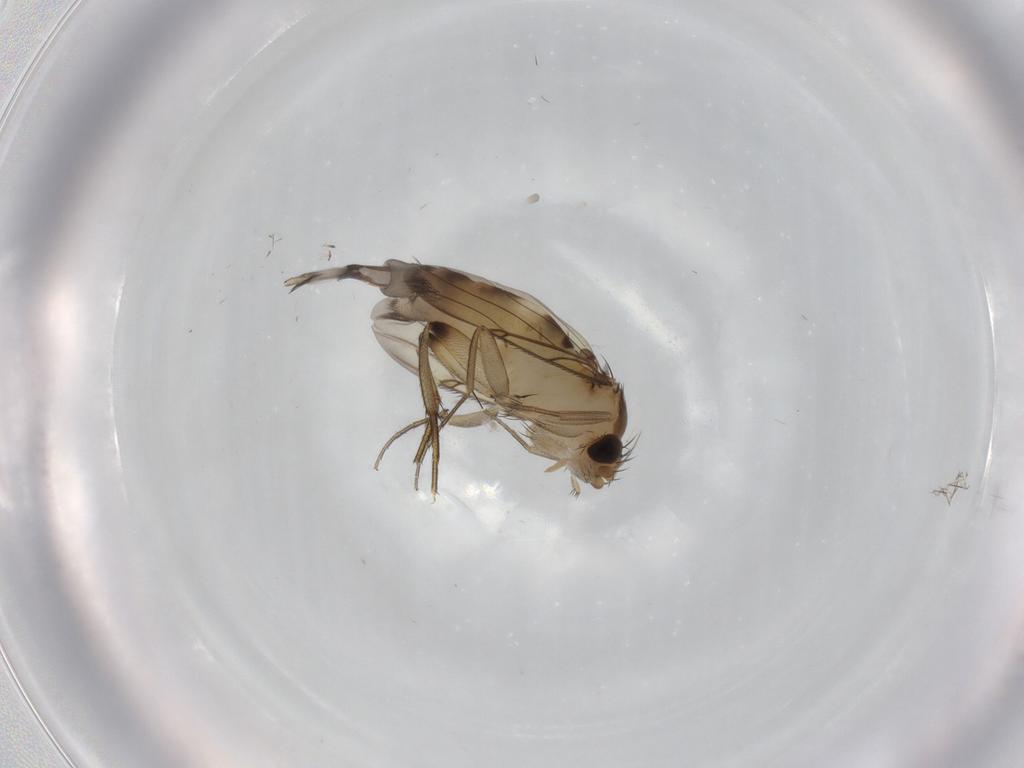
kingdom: Animalia
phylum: Arthropoda
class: Insecta
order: Diptera
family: Phoridae
